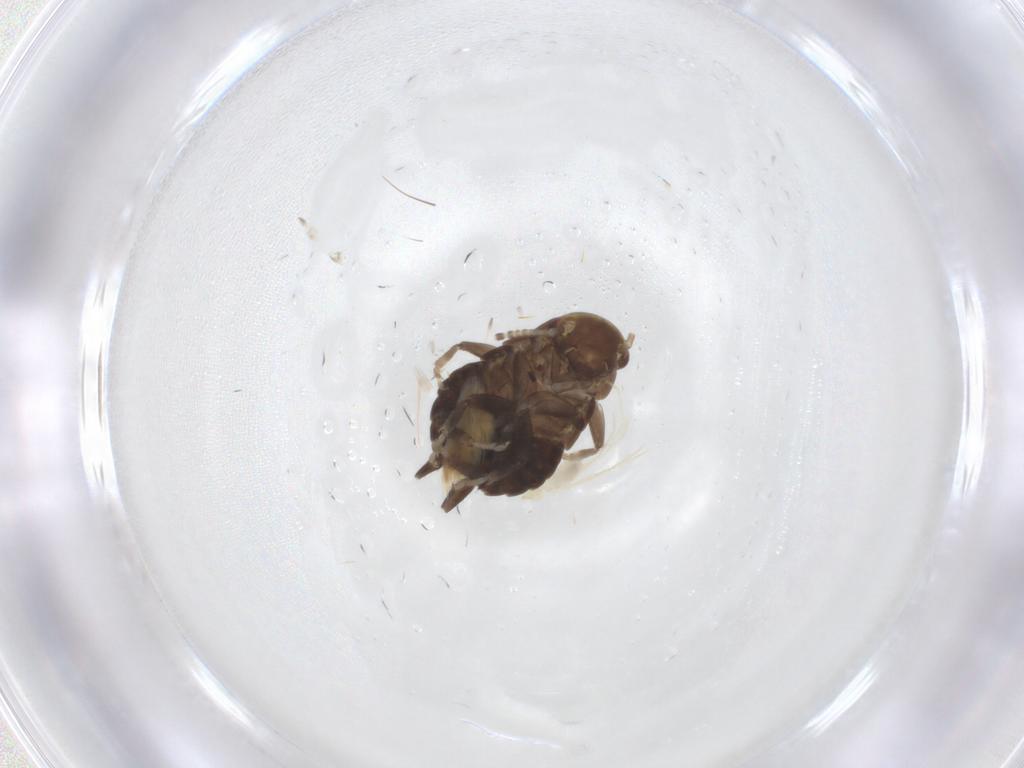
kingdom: Animalia
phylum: Arthropoda
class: Insecta
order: Blattodea
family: Ectobiidae
